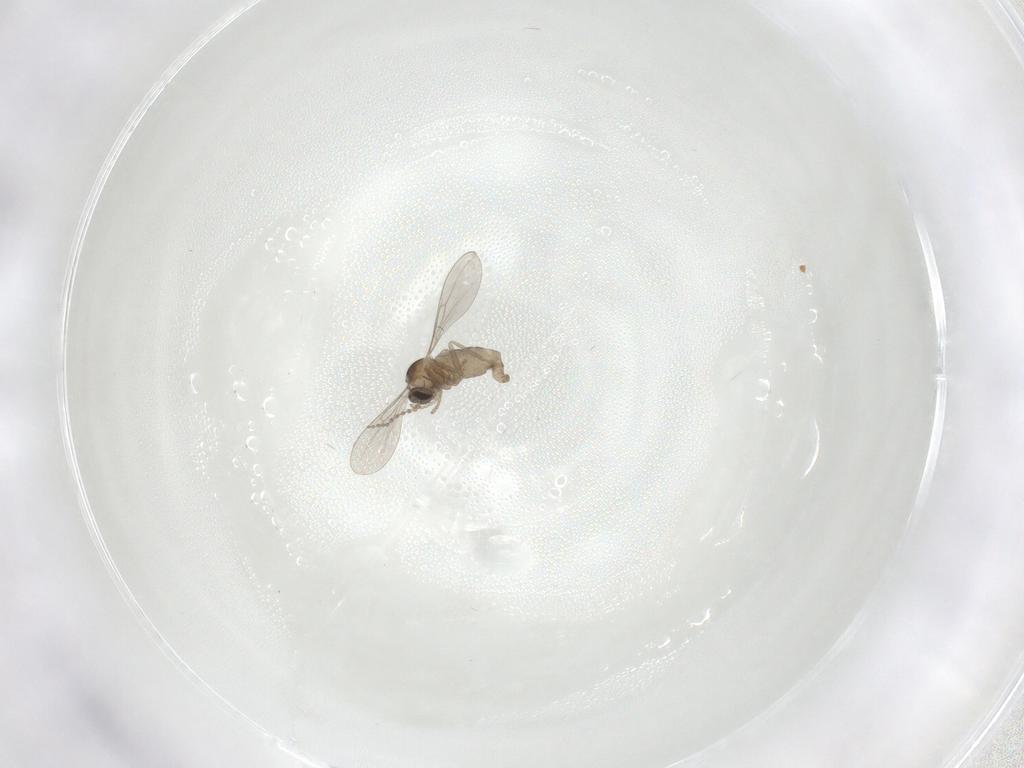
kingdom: Animalia
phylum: Arthropoda
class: Insecta
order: Diptera
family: Cecidomyiidae
